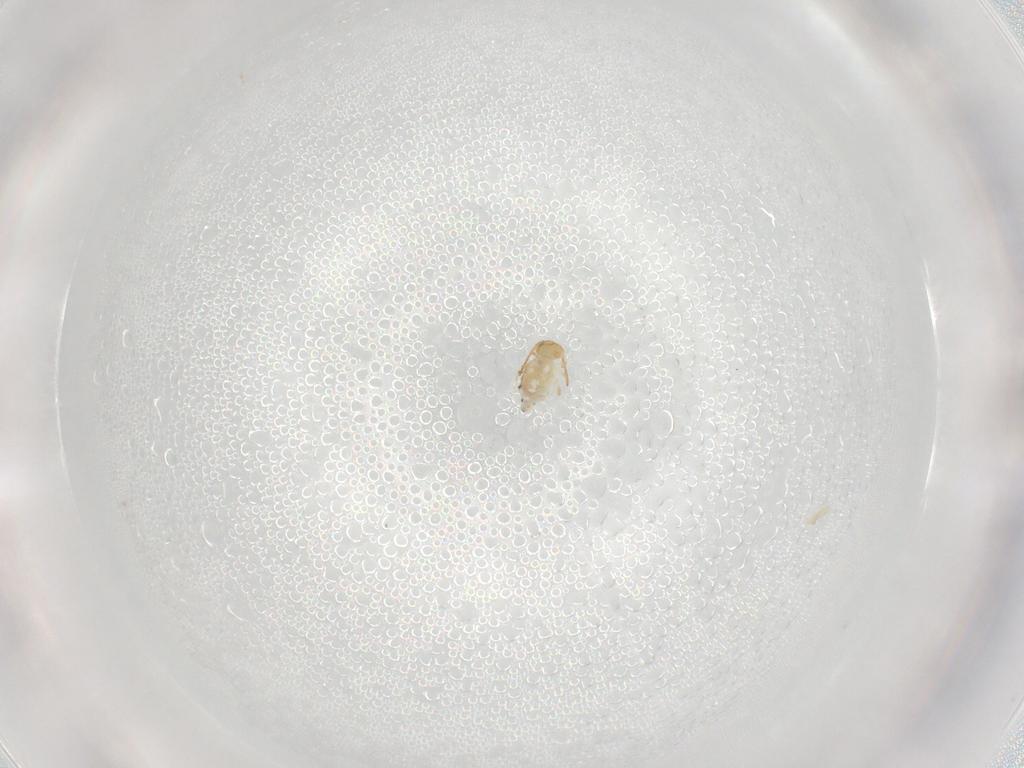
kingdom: Animalia
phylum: Arthropoda
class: Collembola
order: Symphypleona
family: Bourletiellidae
